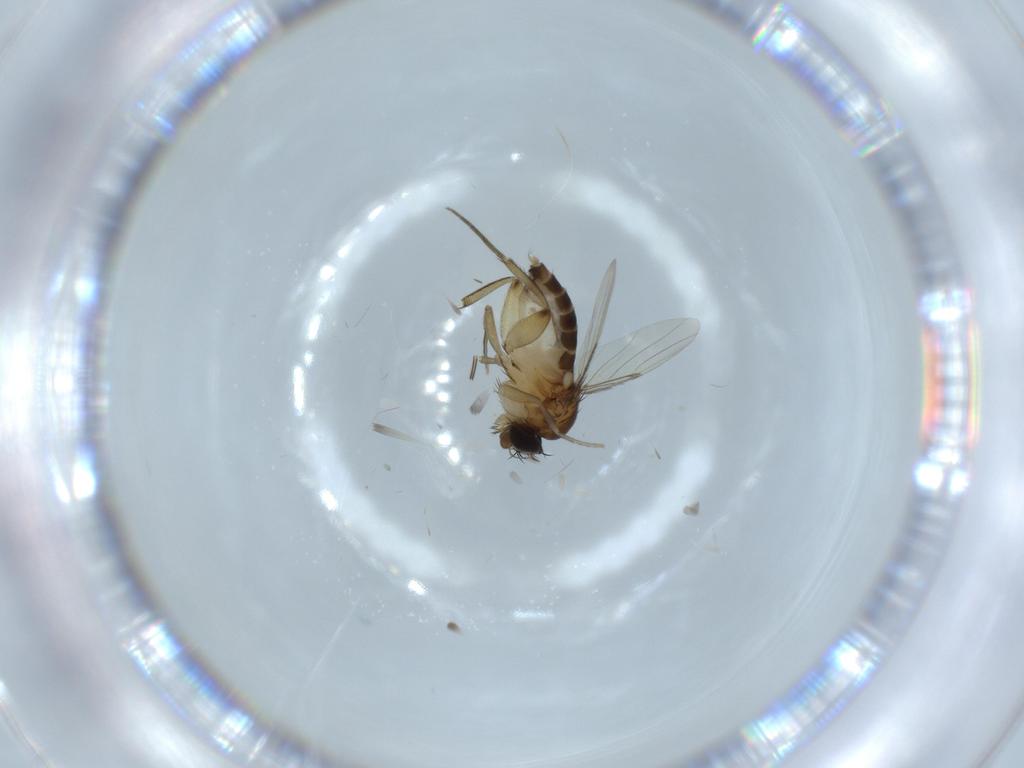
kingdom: Animalia
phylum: Arthropoda
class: Insecta
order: Diptera
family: Phoridae
